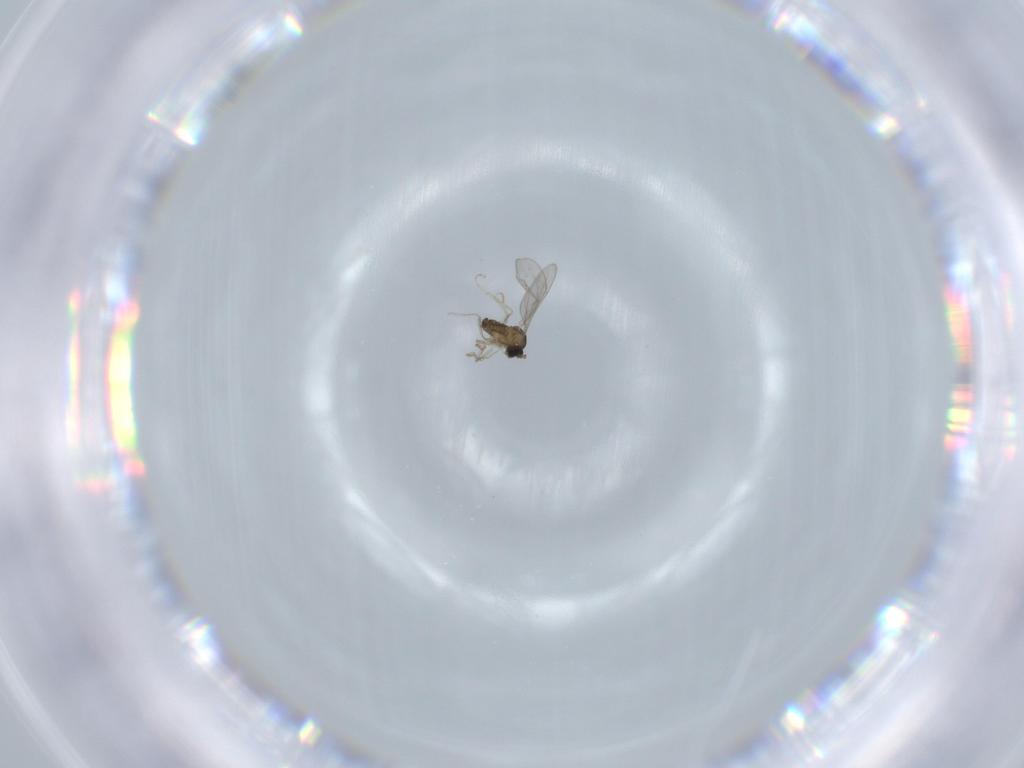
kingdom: Animalia
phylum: Arthropoda
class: Insecta
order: Diptera
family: Cecidomyiidae
